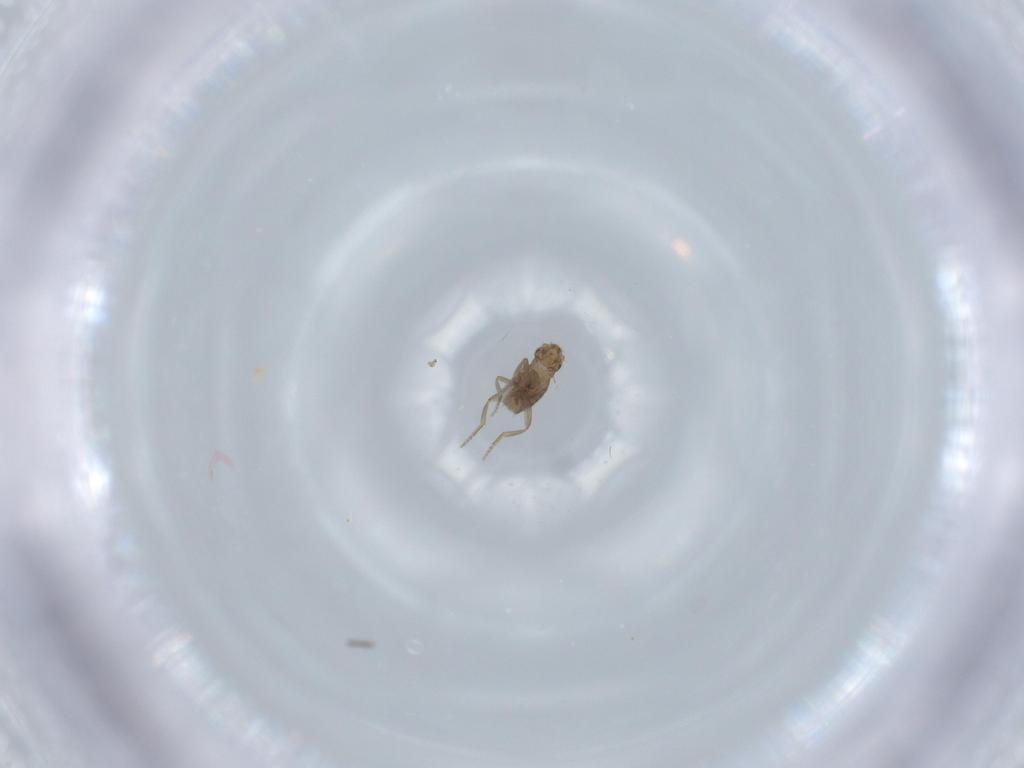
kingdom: Animalia
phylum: Arthropoda
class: Insecta
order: Diptera
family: Cecidomyiidae
